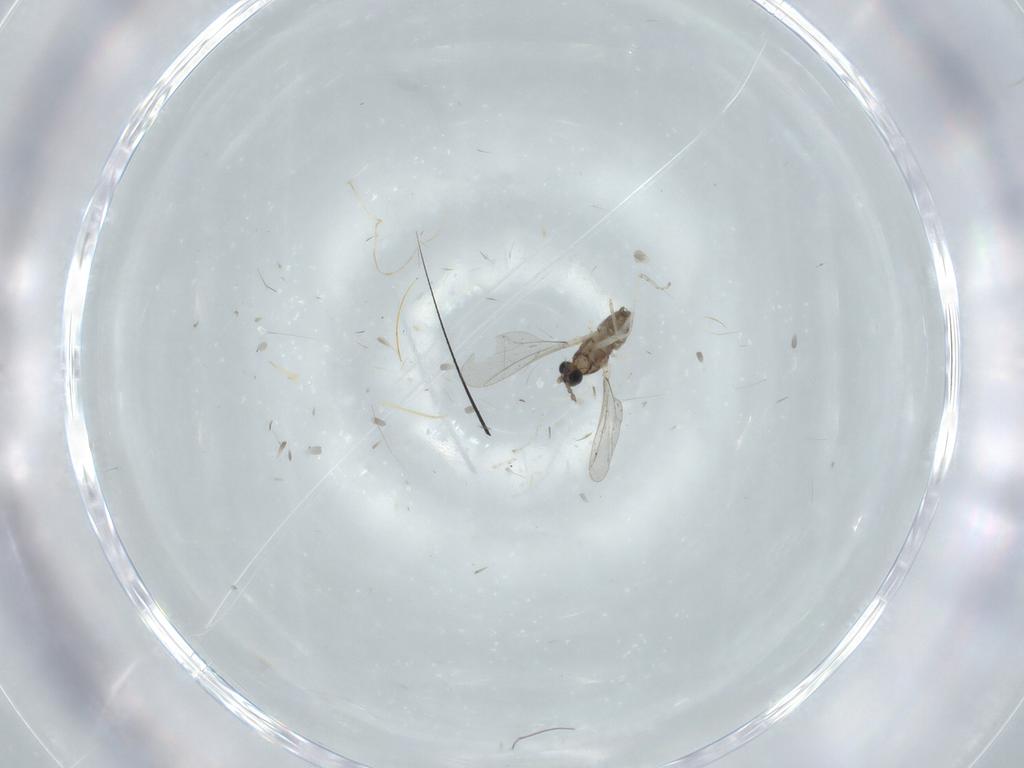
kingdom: Animalia
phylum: Arthropoda
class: Insecta
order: Diptera
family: Cecidomyiidae
